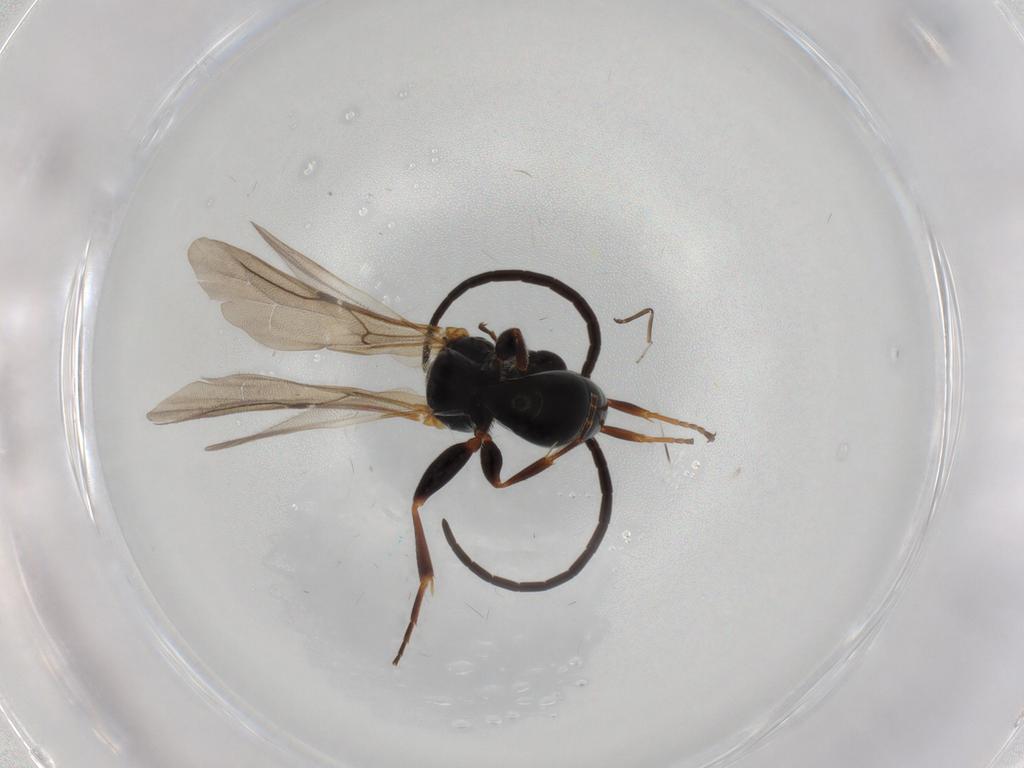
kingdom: Animalia
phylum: Arthropoda
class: Insecta
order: Hymenoptera
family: Bethylidae
